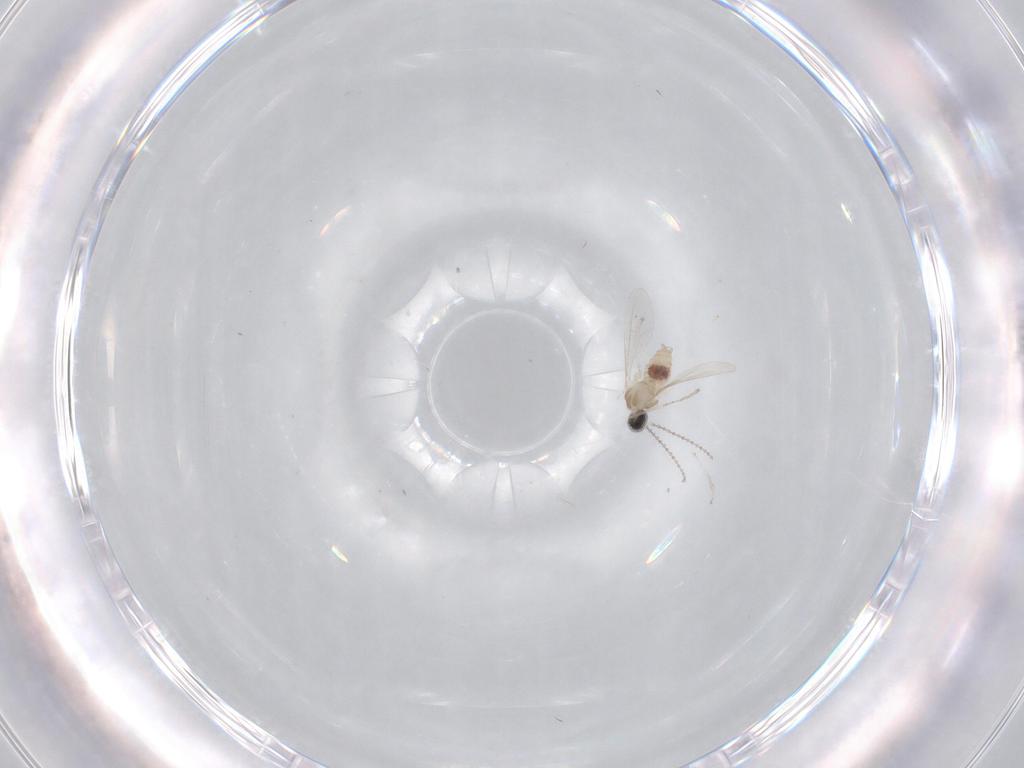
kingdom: Animalia
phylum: Arthropoda
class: Insecta
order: Diptera
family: Cecidomyiidae
